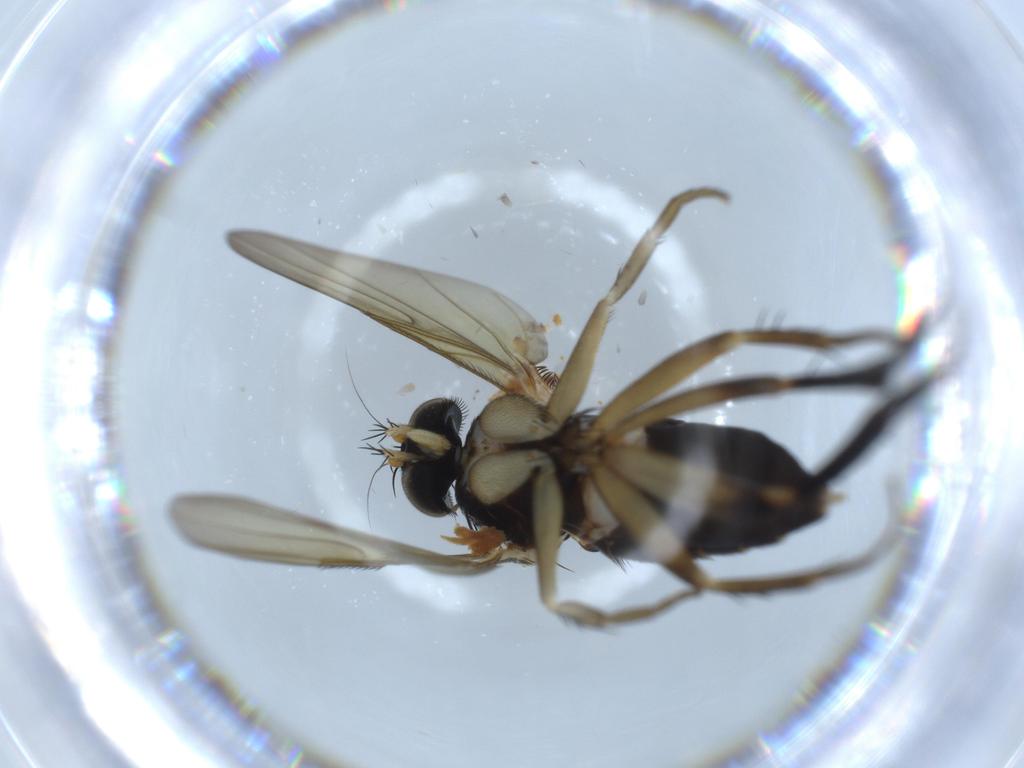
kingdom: Animalia
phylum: Arthropoda
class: Insecta
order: Diptera
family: Phoridae
